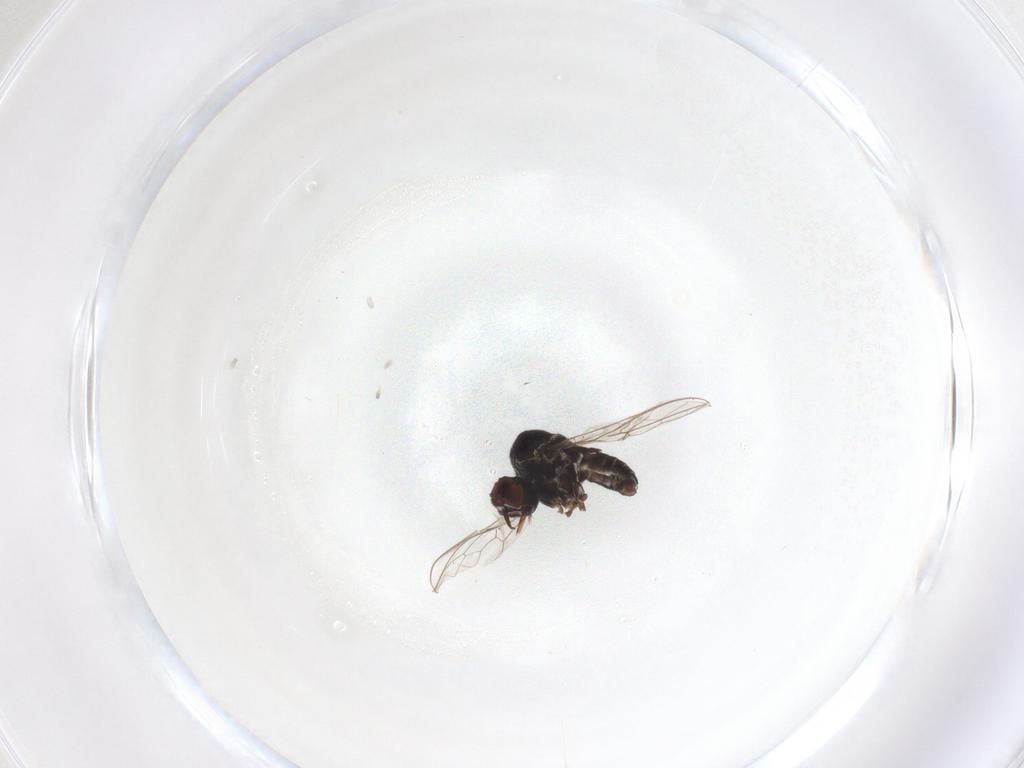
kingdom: Animalia
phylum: Arthropoda
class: Insecta
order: Diptera
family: Bombyliidae
